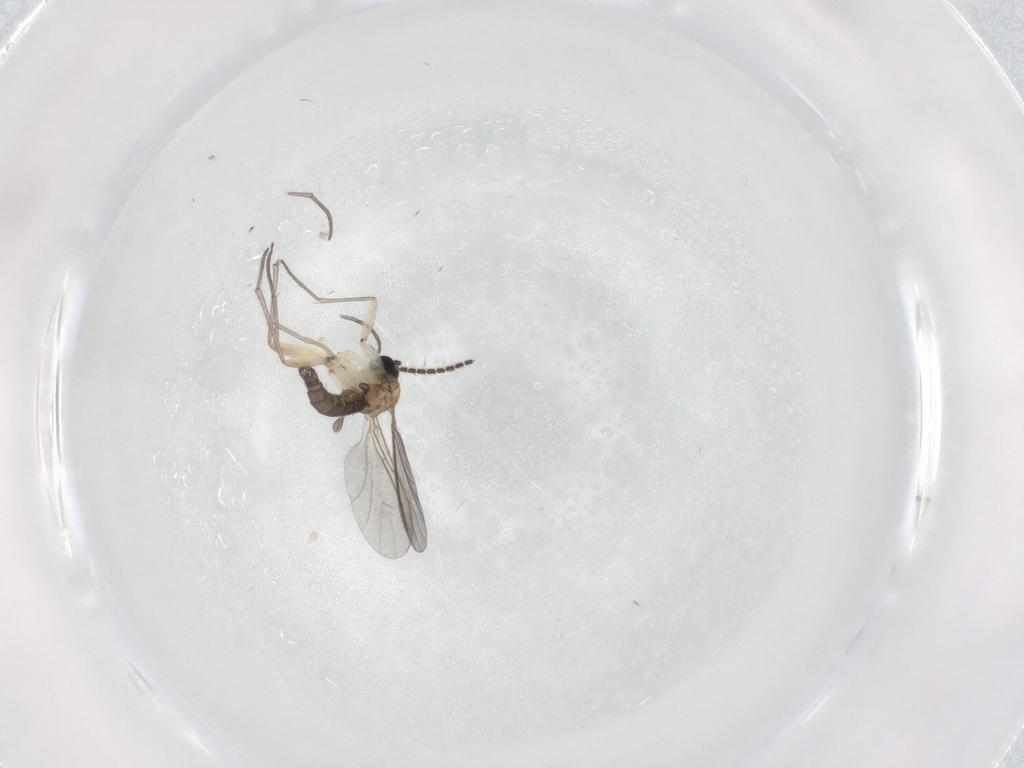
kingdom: Animalia
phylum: Arthropoda
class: Insecta
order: Diptera
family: Scatopsidae
